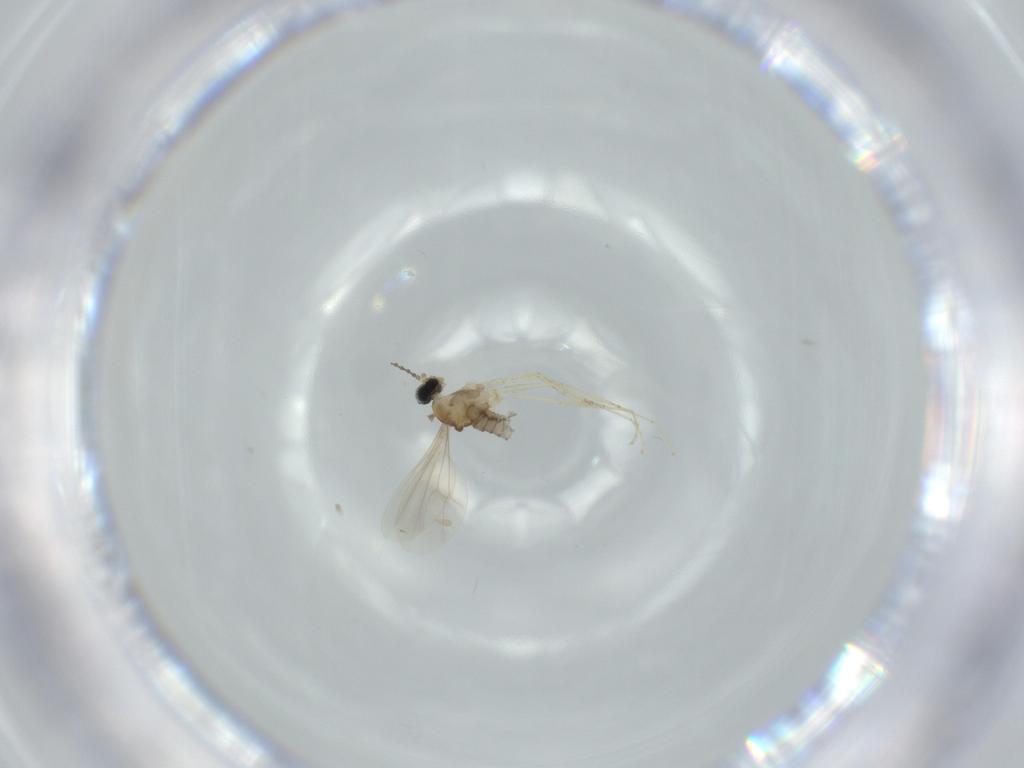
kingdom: Animalia
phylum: Arthropoda
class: Insecta
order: Diptera
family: Cecidomyiidae
